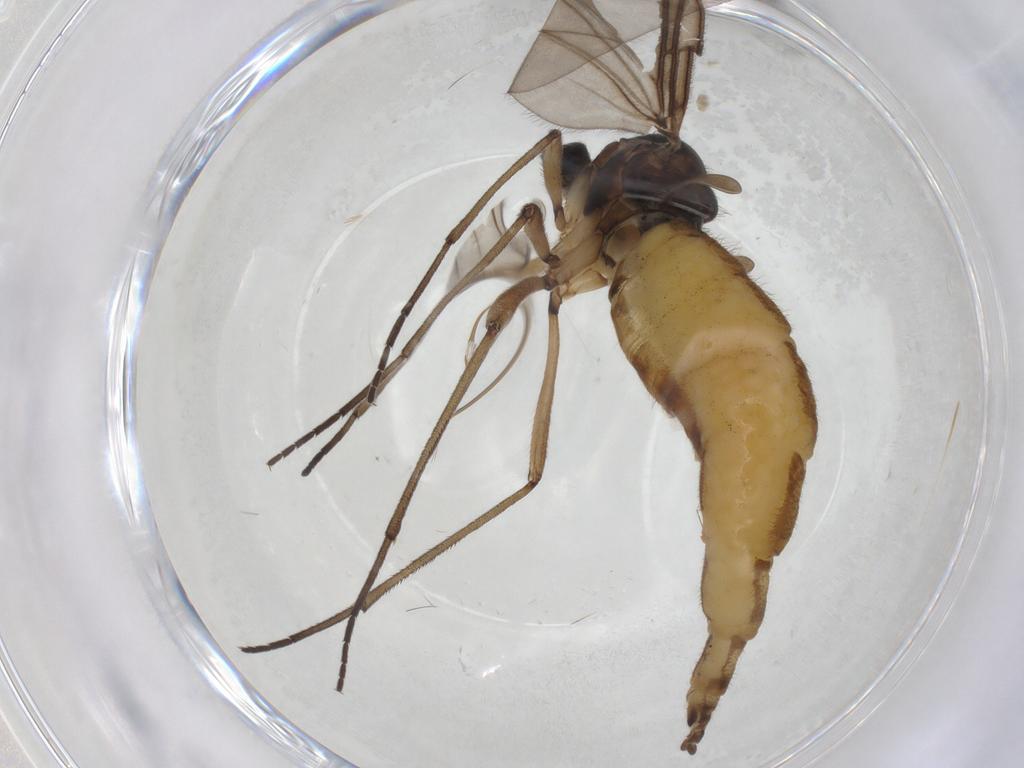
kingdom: Animalia
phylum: Arthropoda
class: Insecta
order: Diptera
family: Sciaridae
